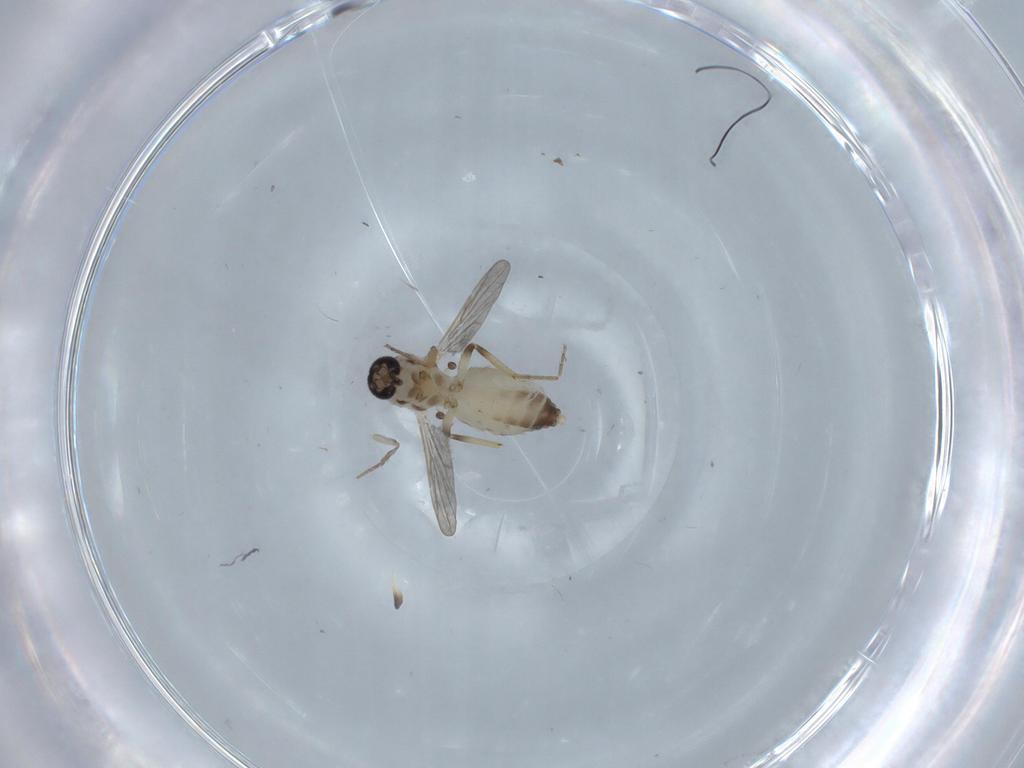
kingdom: Animalia
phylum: Arthropoda
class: Insecta
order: Diptera
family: Ceratopogonidae
